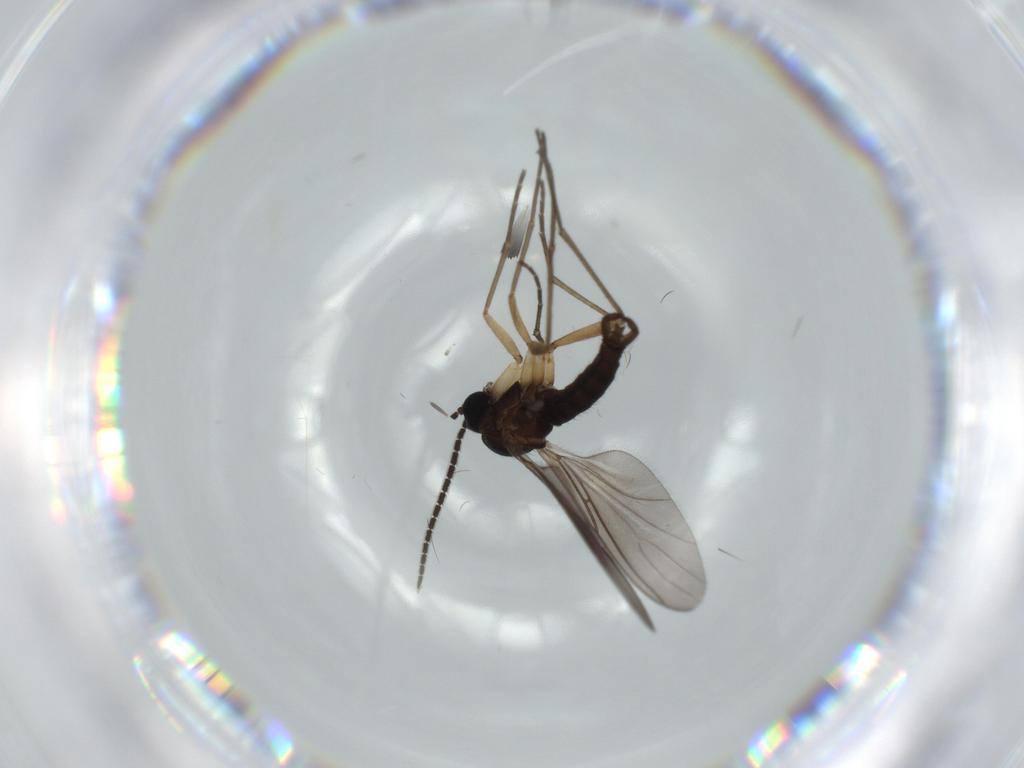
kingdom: Animalia
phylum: Arthropoda
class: Insecta
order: Diptera
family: Sciaridae
